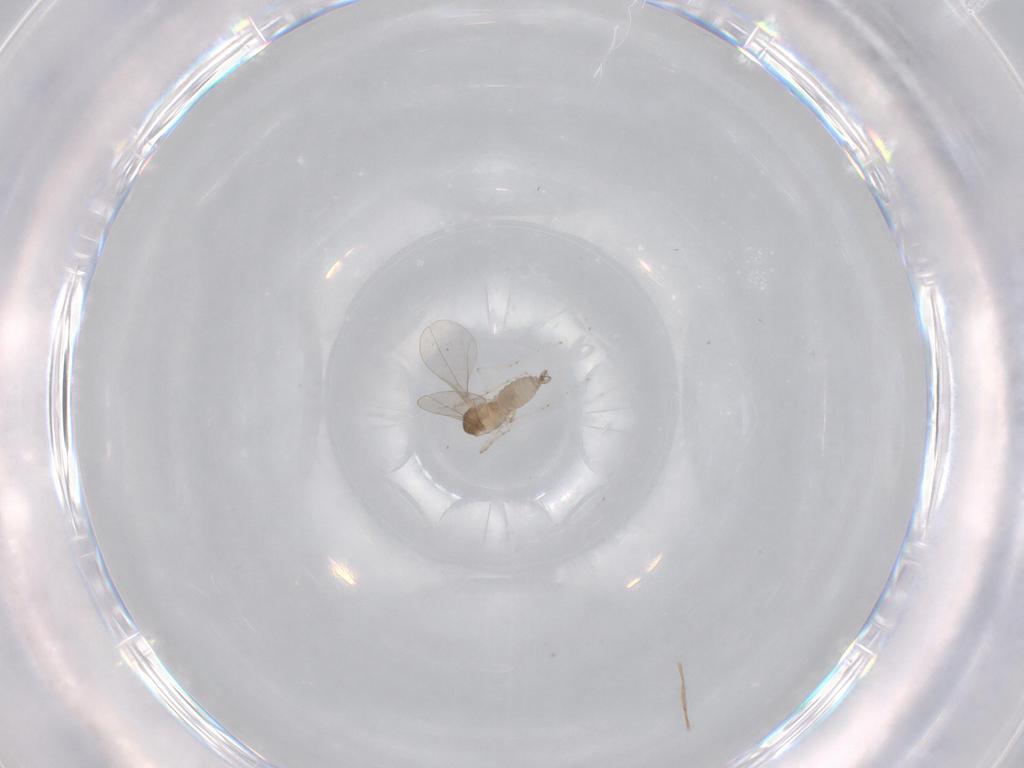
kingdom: Animalia
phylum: Arthropoda
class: Insecta
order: Diptera
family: Cecidomyiidae
